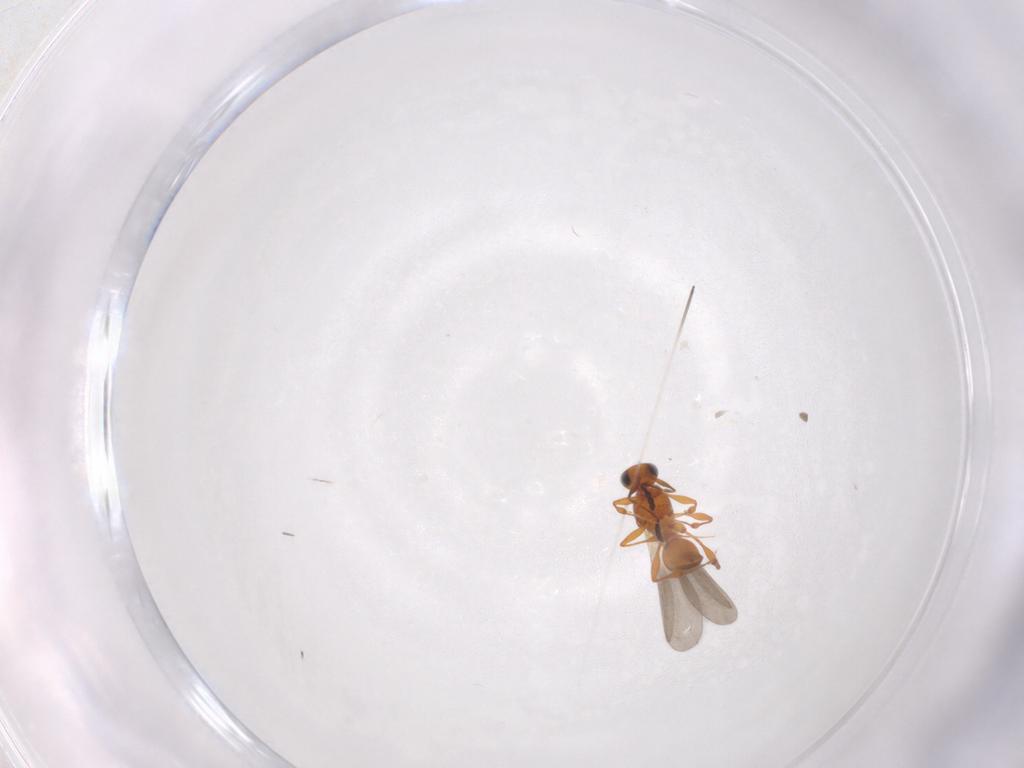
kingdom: Animalia
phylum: Arthropoda
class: Insecta
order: Hymenoptera
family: Platygastridae
